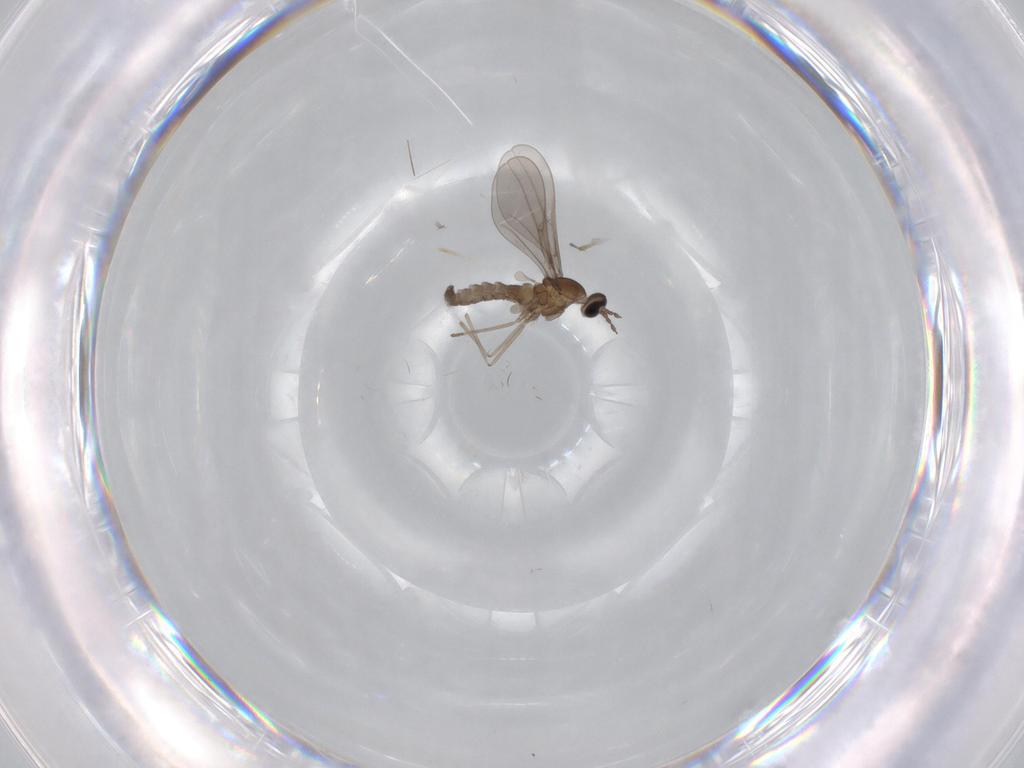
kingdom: Animalia
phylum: Arthropoda
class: Insecta
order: Diptera
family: Cecidomyiidae
